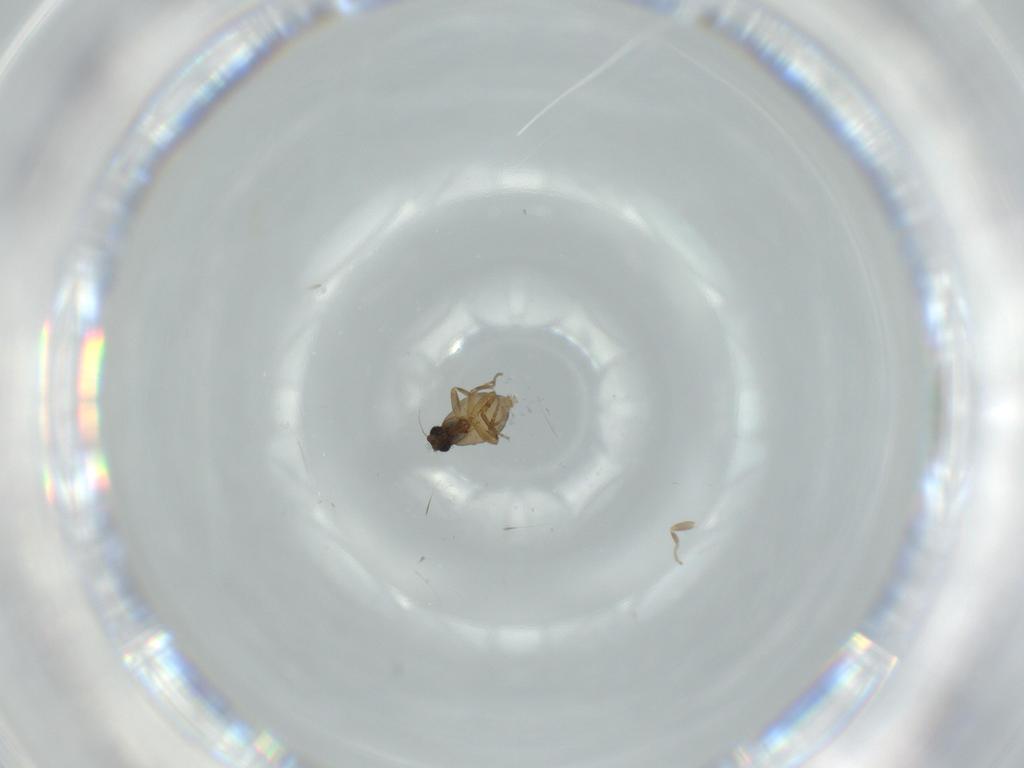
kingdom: Animalia
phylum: Arthropoda
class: Insecta
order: Diptera
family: Phoridae
